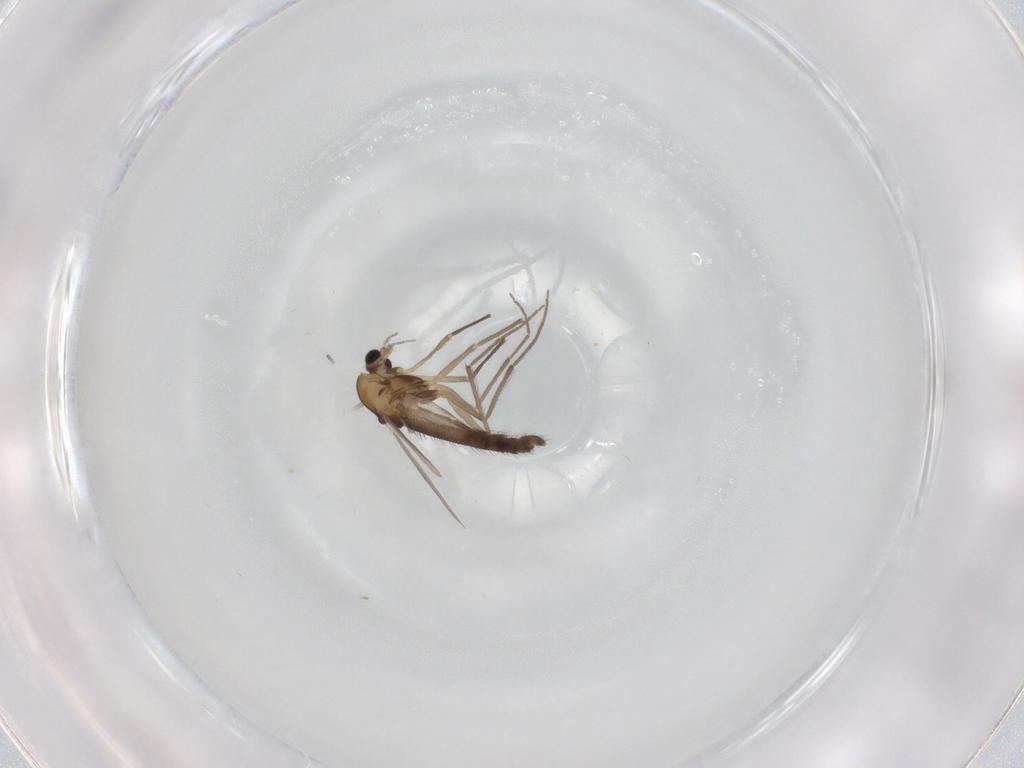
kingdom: Animalia
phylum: Arthropoda
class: Insecta
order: Diptera
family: Chironomidae
